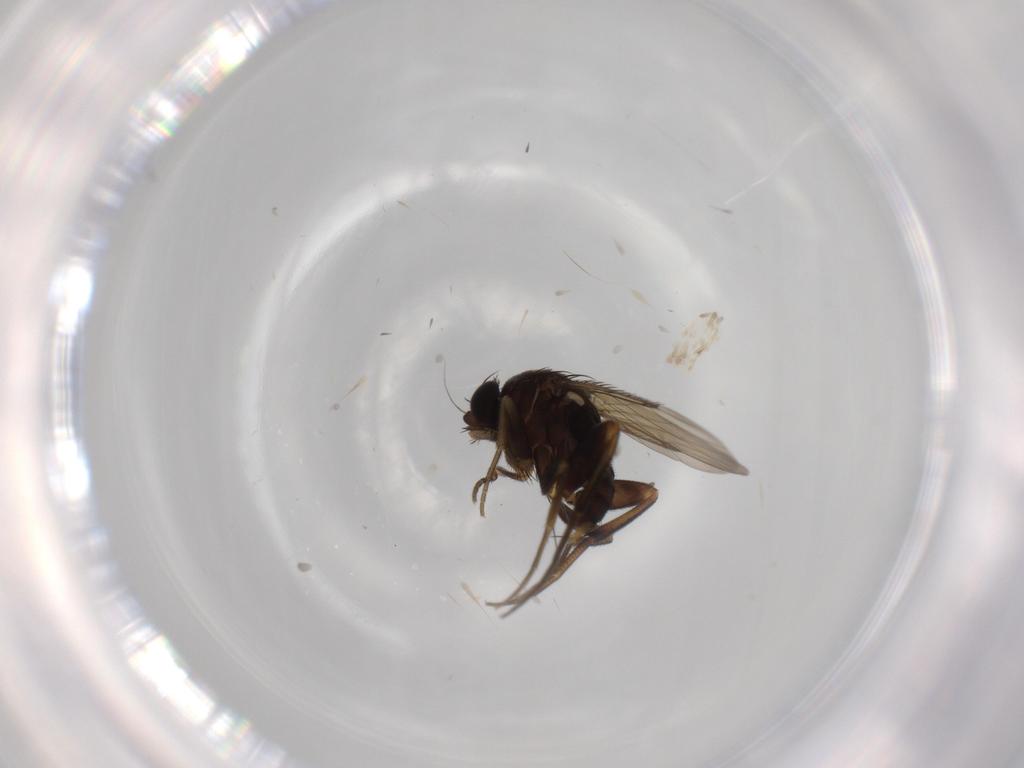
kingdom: Animalia
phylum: Arthropoda
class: Insecta
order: Diptera
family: Phoridae
